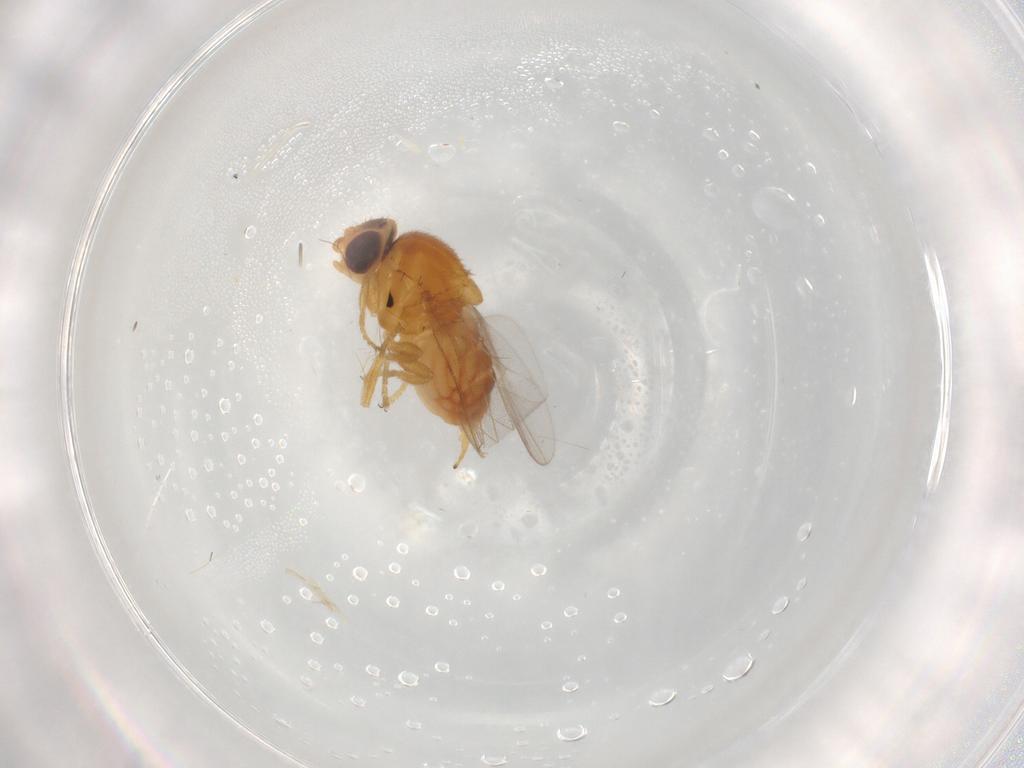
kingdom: Animalia
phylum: Arthropoda
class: Insecta
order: Diptera
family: Chloropidae
